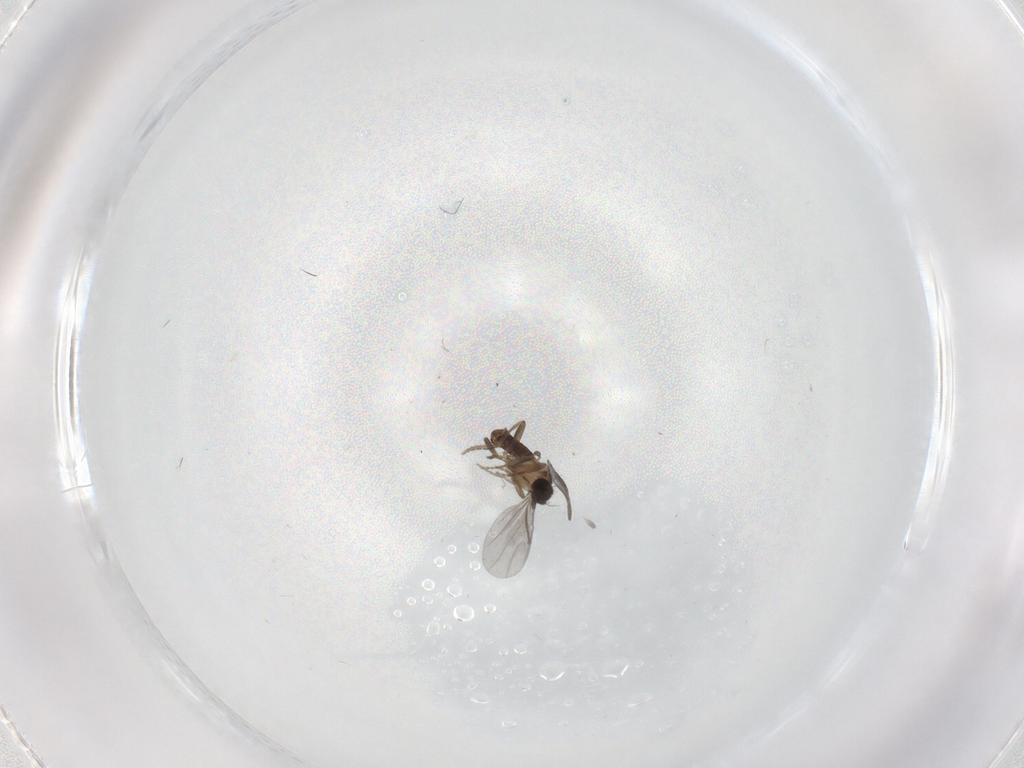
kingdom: Animalia
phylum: Arthropoda
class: Insecta
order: Diptera
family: Phoridae
